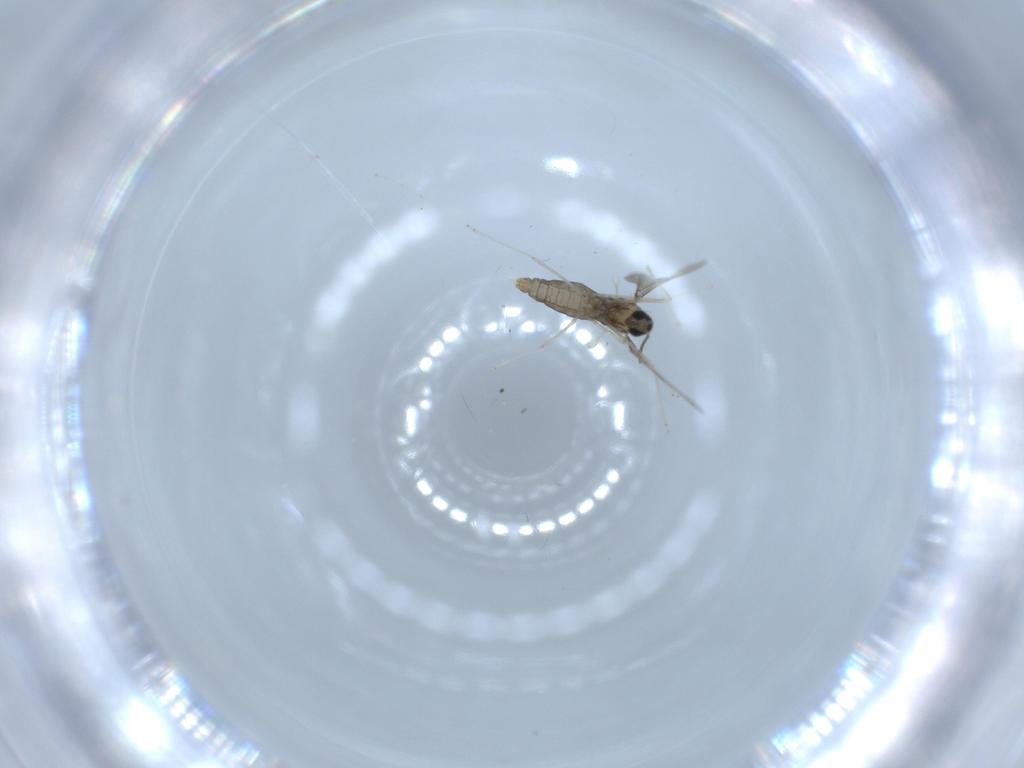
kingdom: Animalia
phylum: Arthropoda
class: Insecta
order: Diptera
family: Cecidomyiidae
